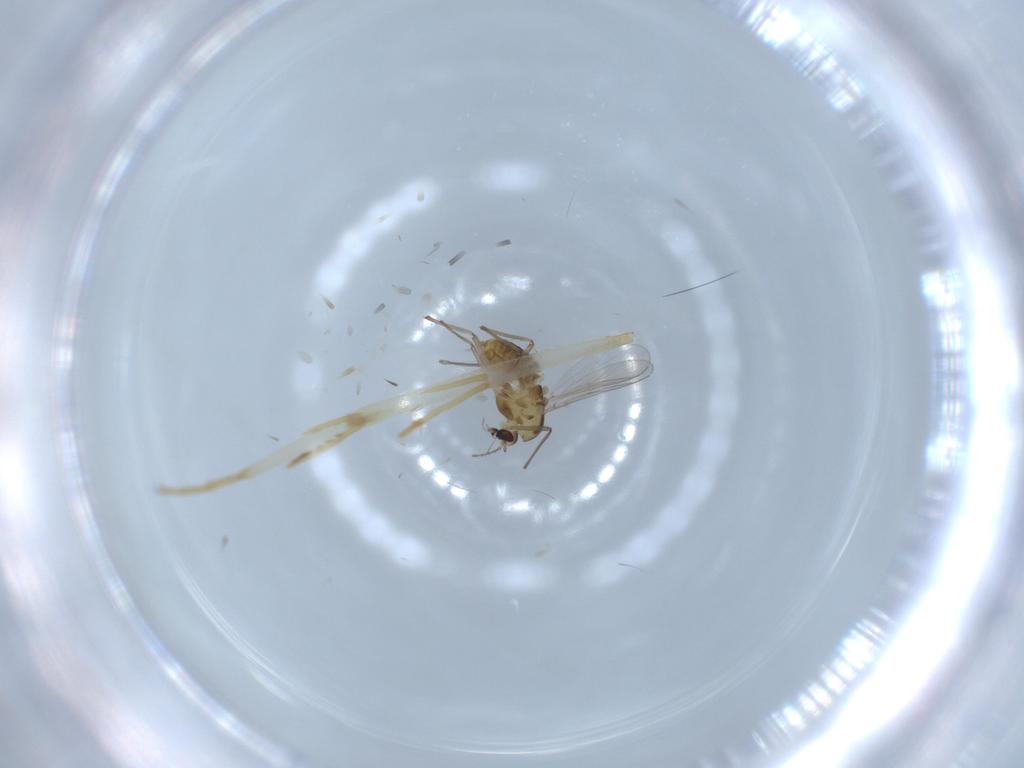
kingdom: Animalia
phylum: Arthropoda
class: Insecta
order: Diptera
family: Chironomidae
